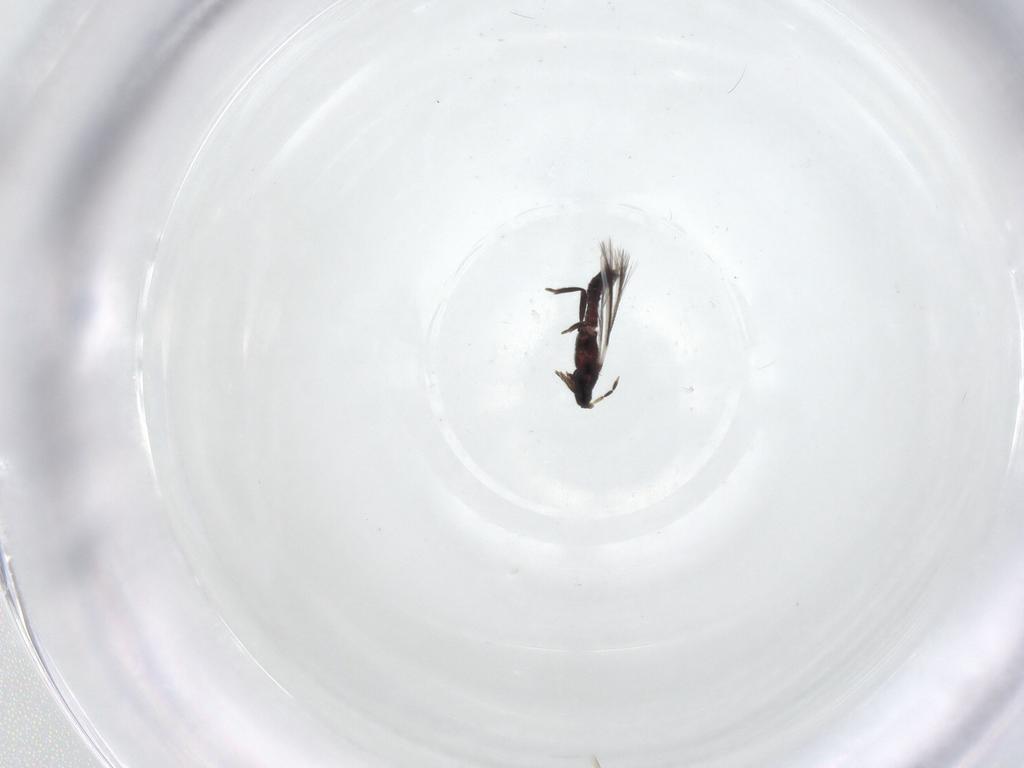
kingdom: Animalia
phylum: Arthropoda
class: Insecta
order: Thysanoptera
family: Aeolothripidae
